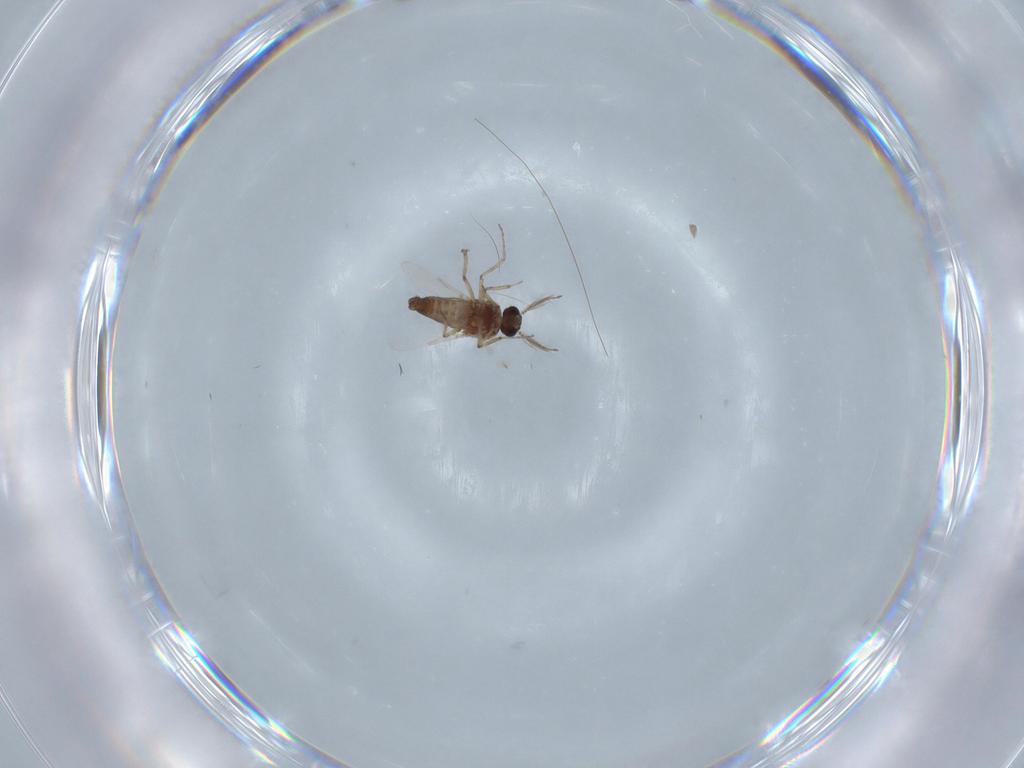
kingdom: Animalia
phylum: Arthropoda
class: Insecta
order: Diptera
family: Ceratopogonidae
